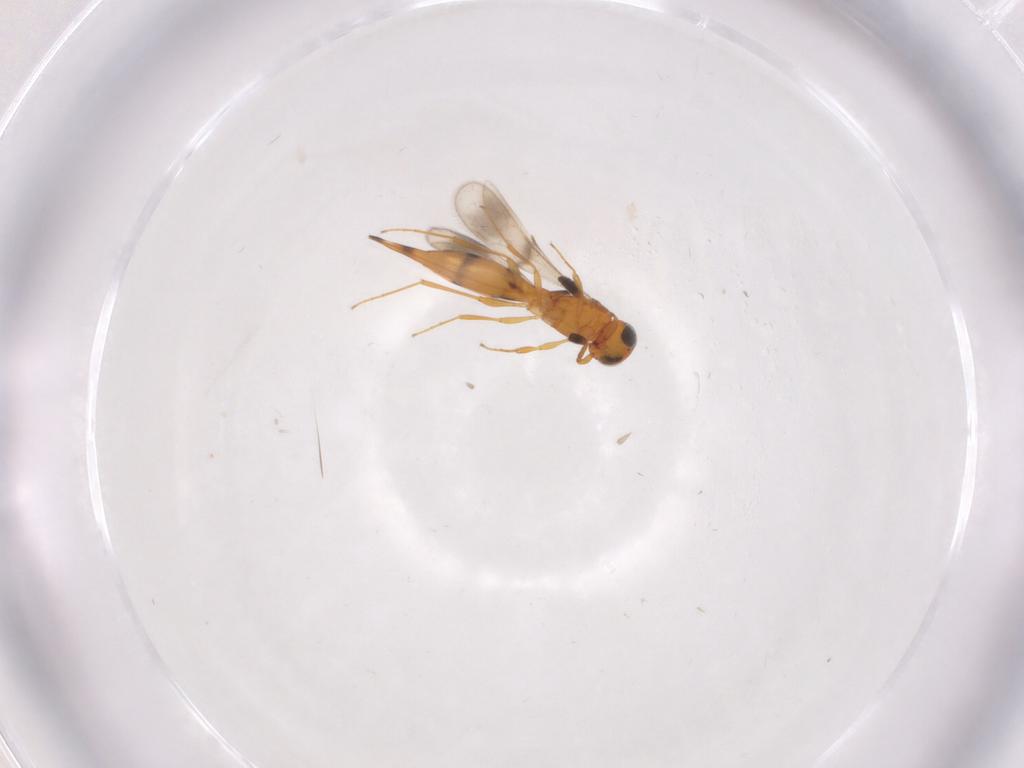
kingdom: Animalia
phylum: Arthropoda
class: Insecta
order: Hymenoptera
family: Scelionidae
